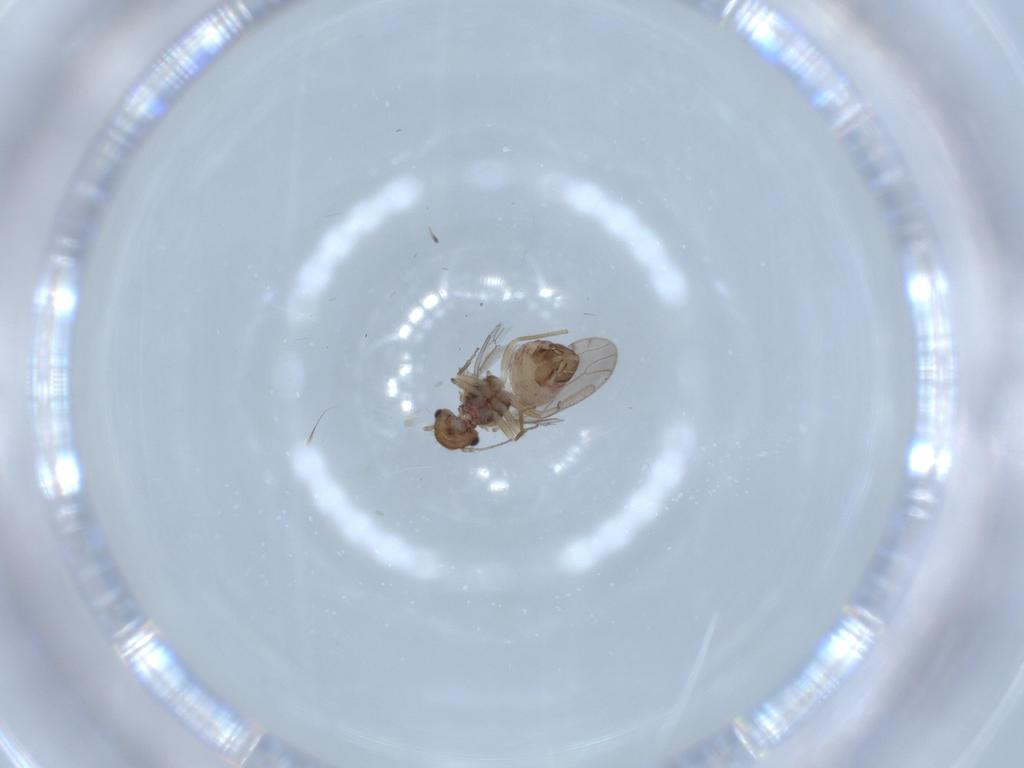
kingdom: Animalia
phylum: Arthropoda
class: Insecta
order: Psocodea
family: Ectopsocidae
